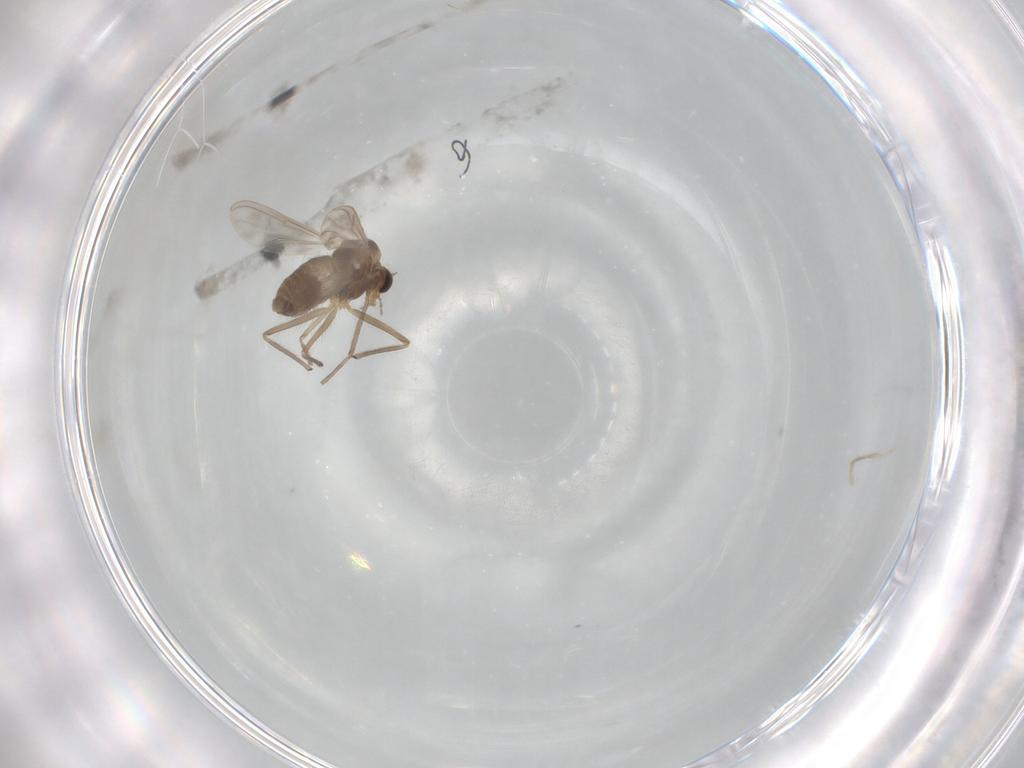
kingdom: Animalia
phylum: Arthropoda
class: Insecta
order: Diptera
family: Chironomidae
